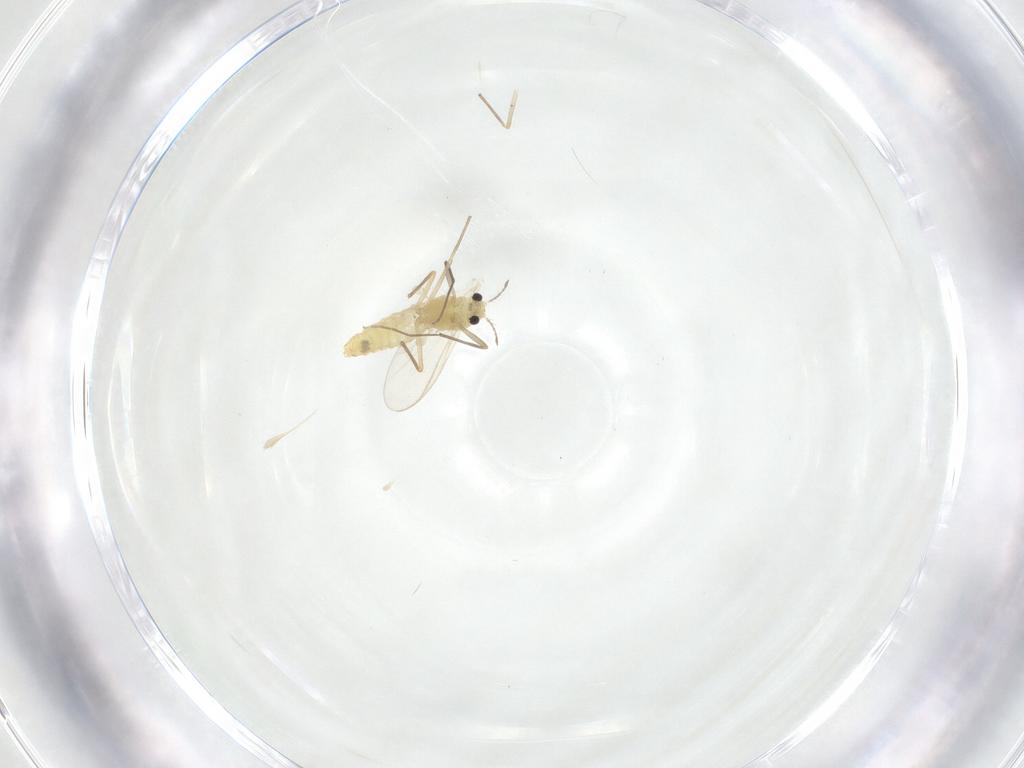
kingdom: Animalia
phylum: Arthropoda
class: Insecta
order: Diptera
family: Chironomidae
